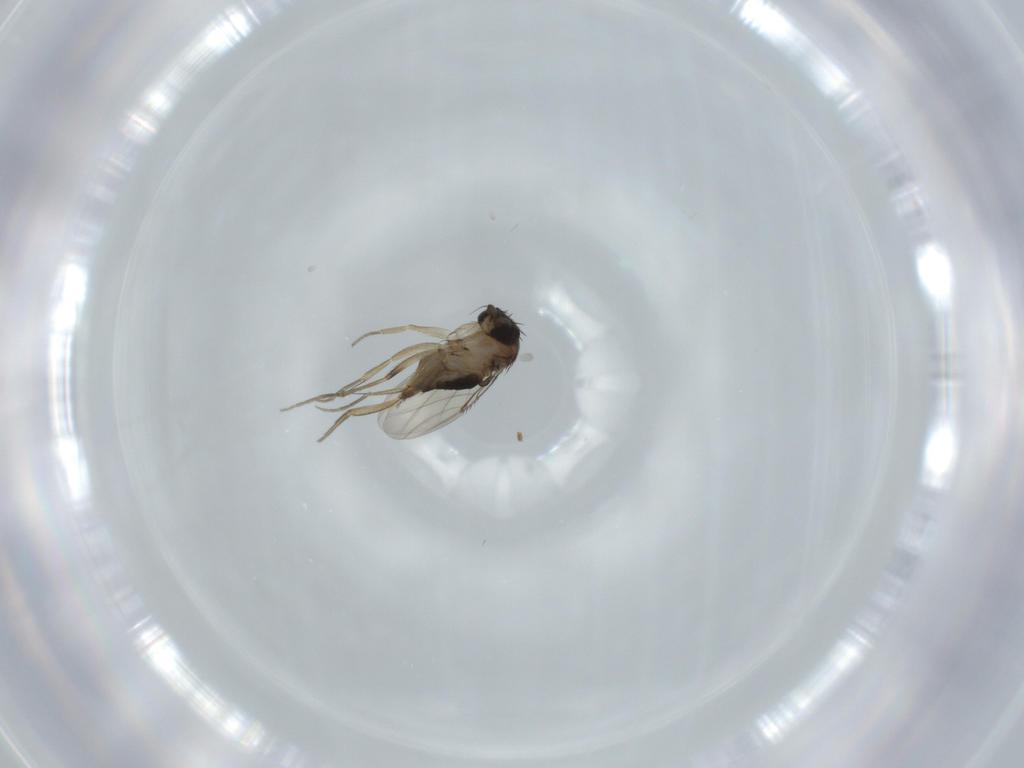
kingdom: Animalia
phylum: Arthropoda
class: Insecta
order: Diptera
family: Phoridae
